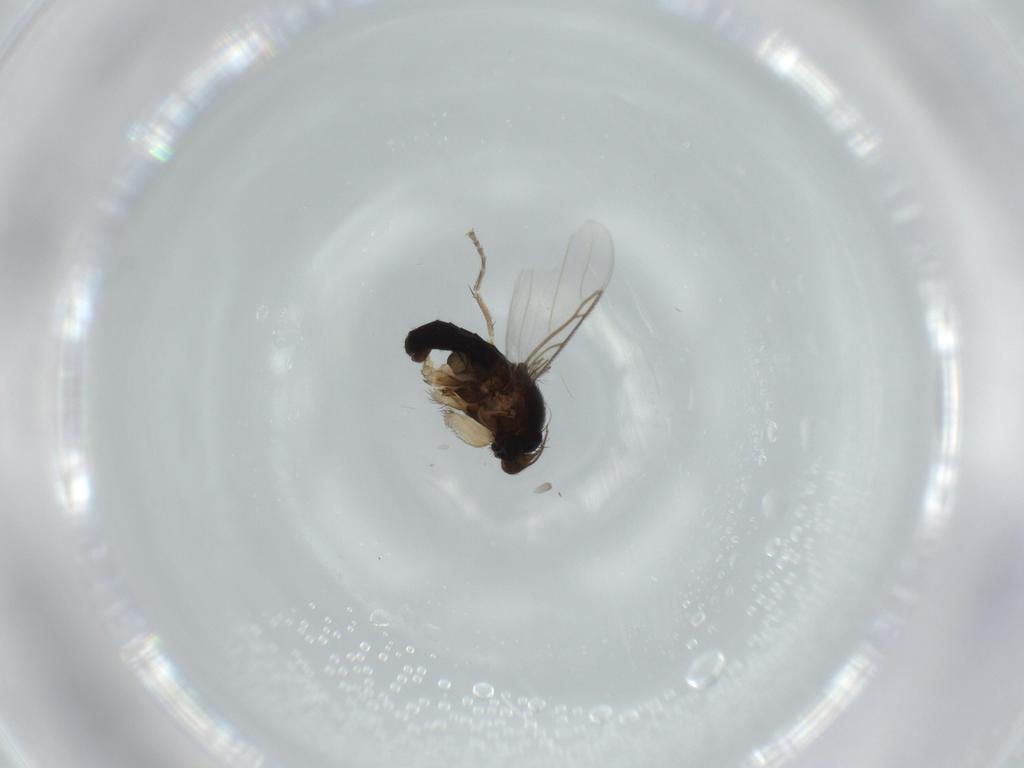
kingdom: Animalia
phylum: Arthropoda
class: Insecta
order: Diptera
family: Phoridae
